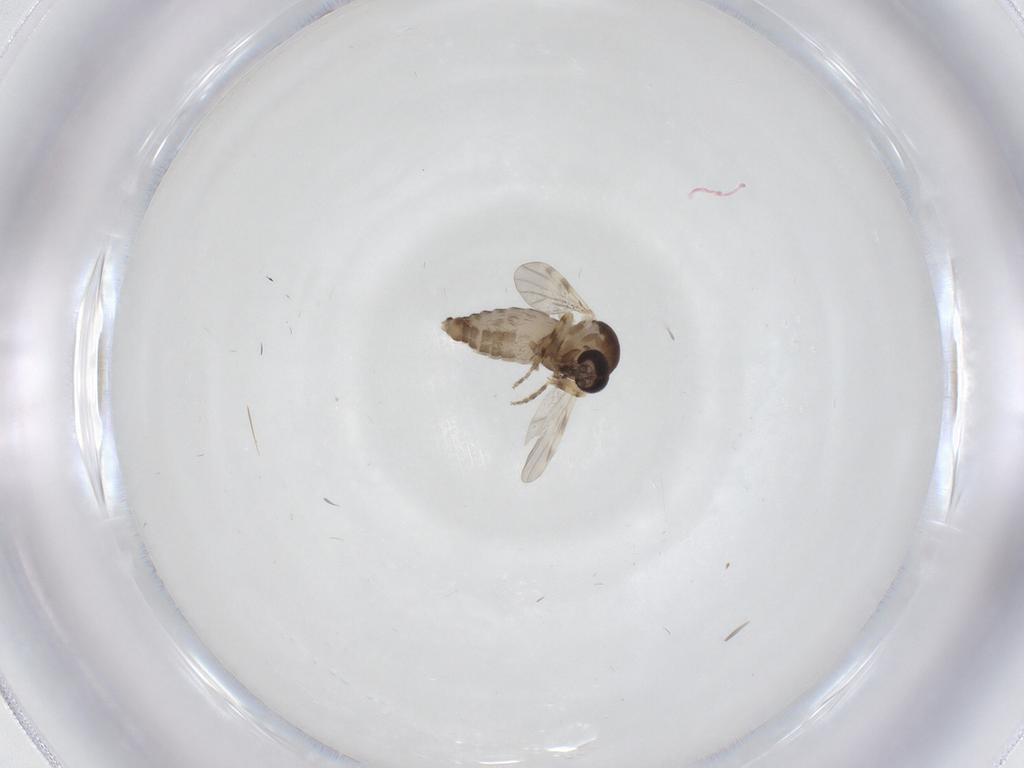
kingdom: Animalia
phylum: Arthropoda
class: Insecta
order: Diptera
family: Ceratopogonidae
